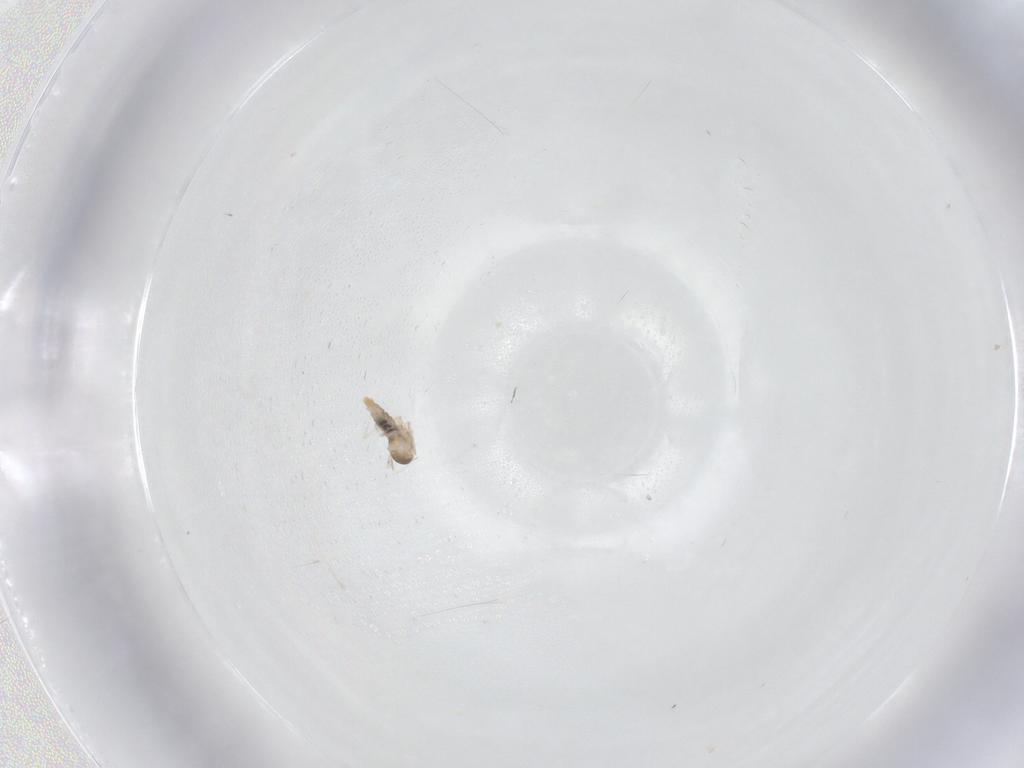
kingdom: Animalia
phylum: Arthropoda
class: Insecta
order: Diptera
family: Cecidomyiidae
